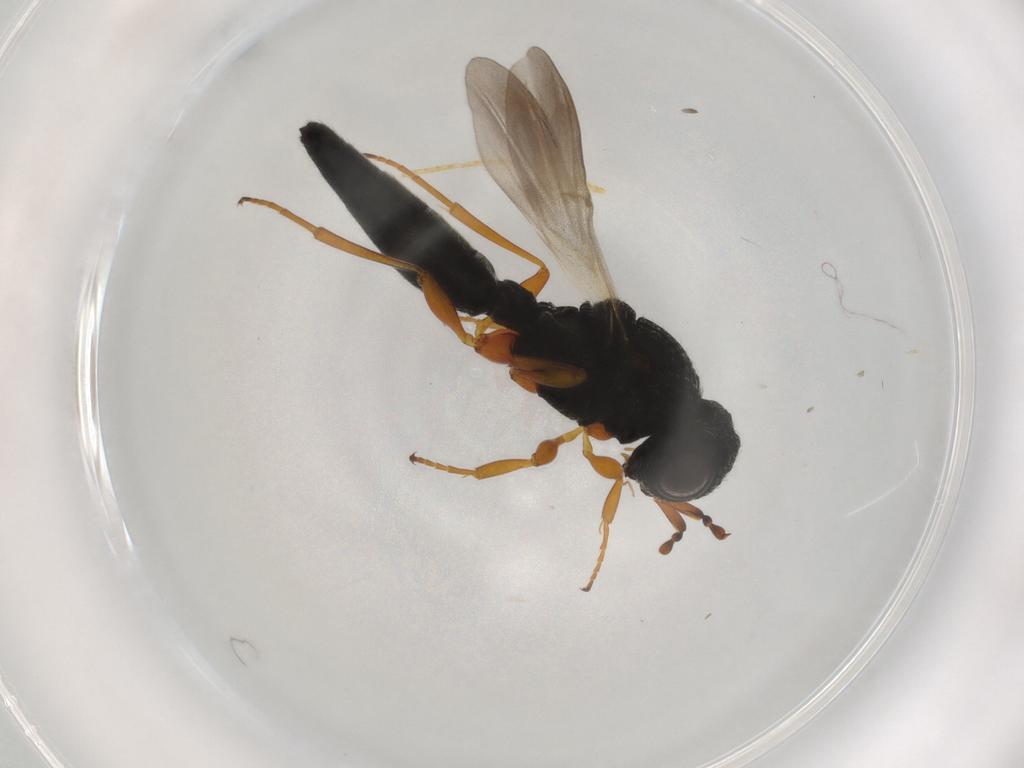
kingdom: Animalia
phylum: Arthropoda
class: Insecta
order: Hymenoptera
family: Scelionidae
